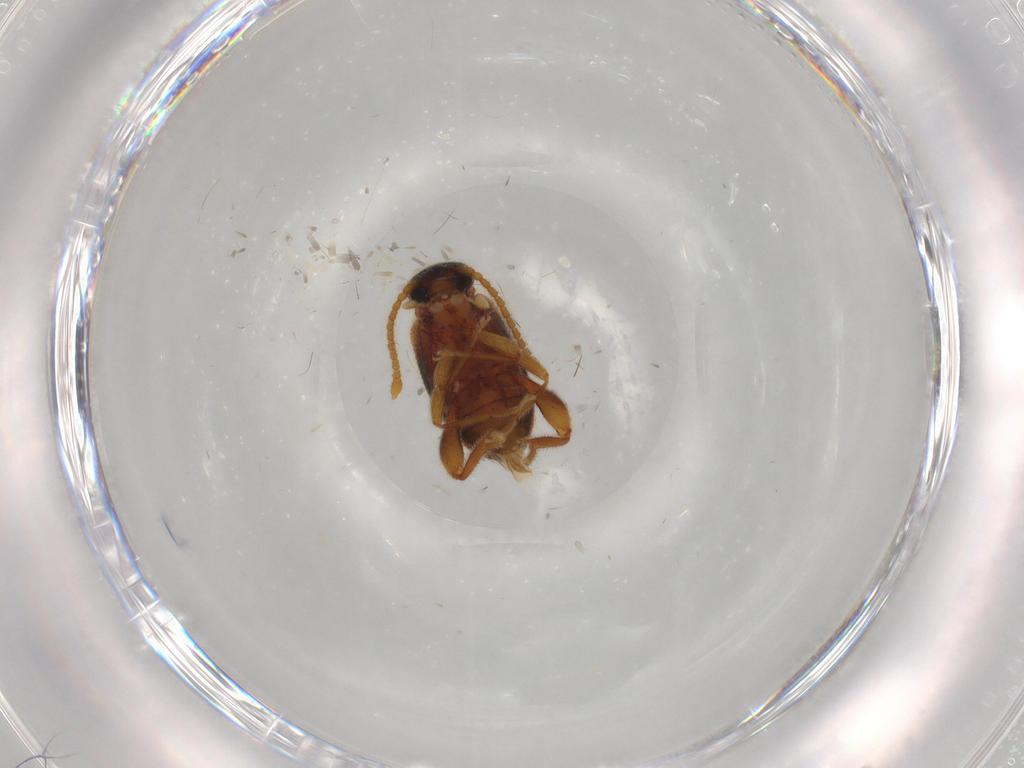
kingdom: Animalia
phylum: Arthropoda
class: Insecta
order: Coleoptera
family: Aderidae
